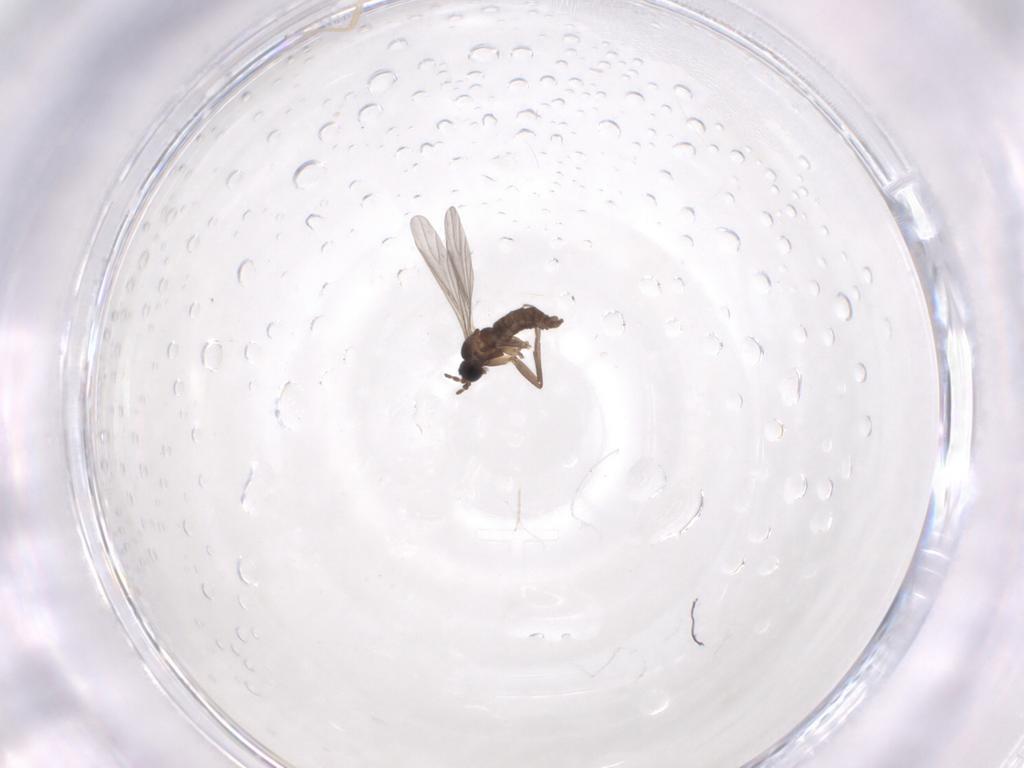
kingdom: Animalia
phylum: Arthropoda
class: Insecta
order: Diptera
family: Sciaridae
